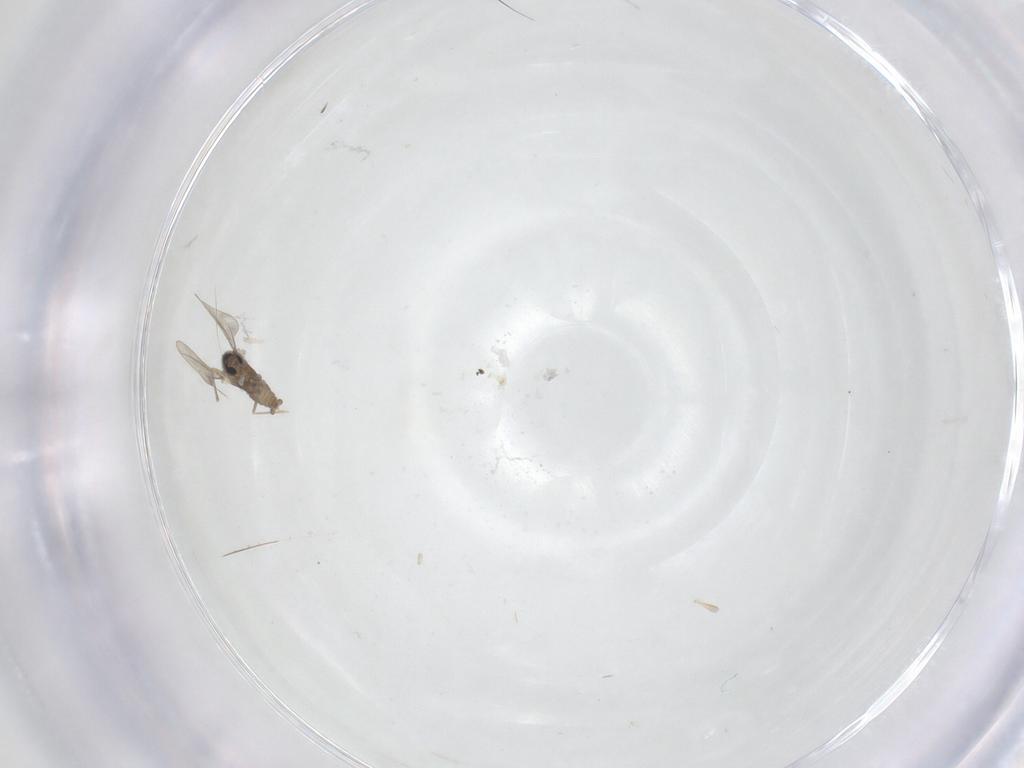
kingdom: Animalia
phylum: Arthropoda
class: Insecta
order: Diptera
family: Cecidomyiidae
